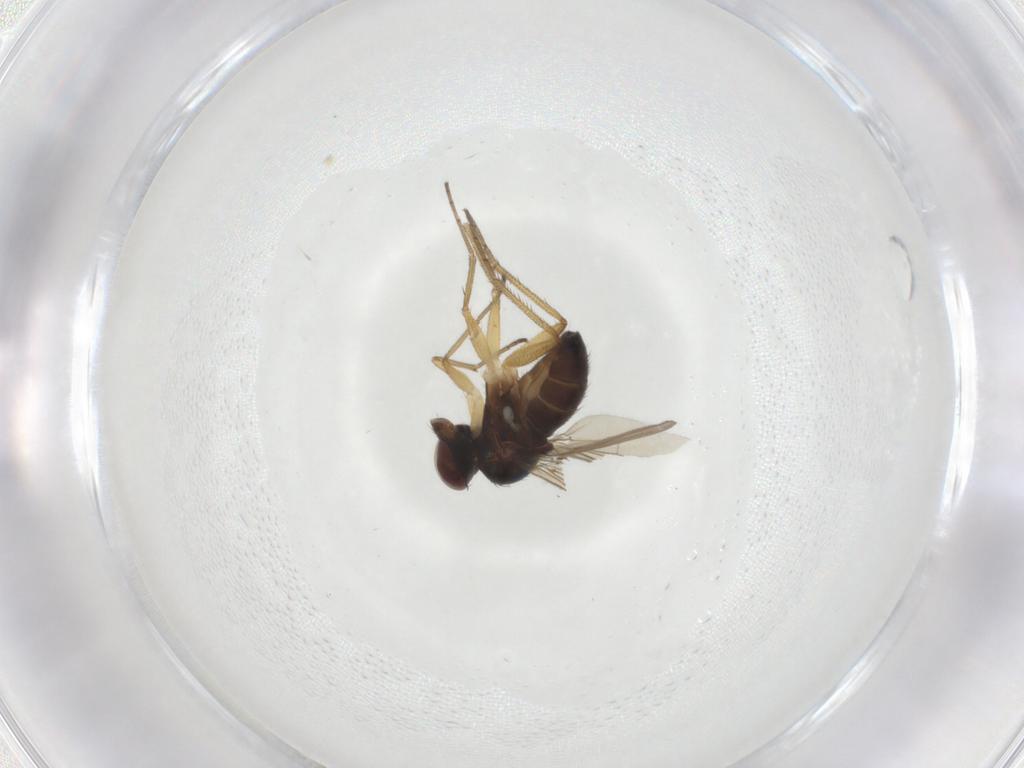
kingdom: Animalia
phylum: Arthropoda
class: Insecta
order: Diptera
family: Dolichopodidae
